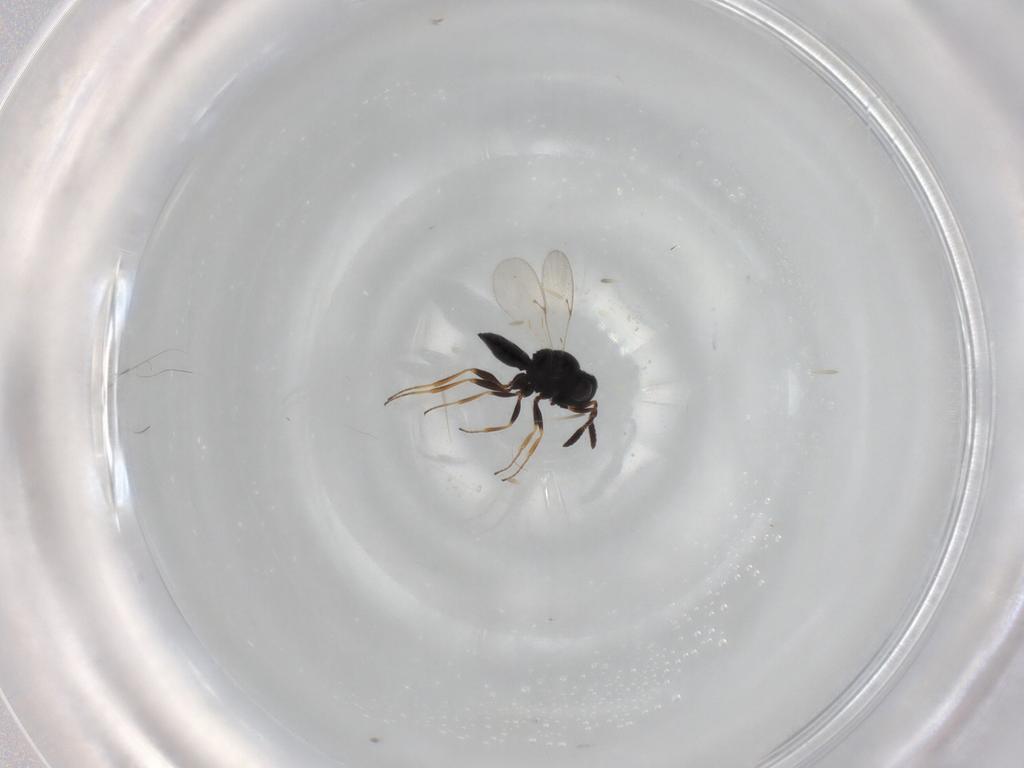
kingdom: Animalia
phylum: Arthropoda
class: Insecta
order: Hymenoptera
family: Scelionidae
